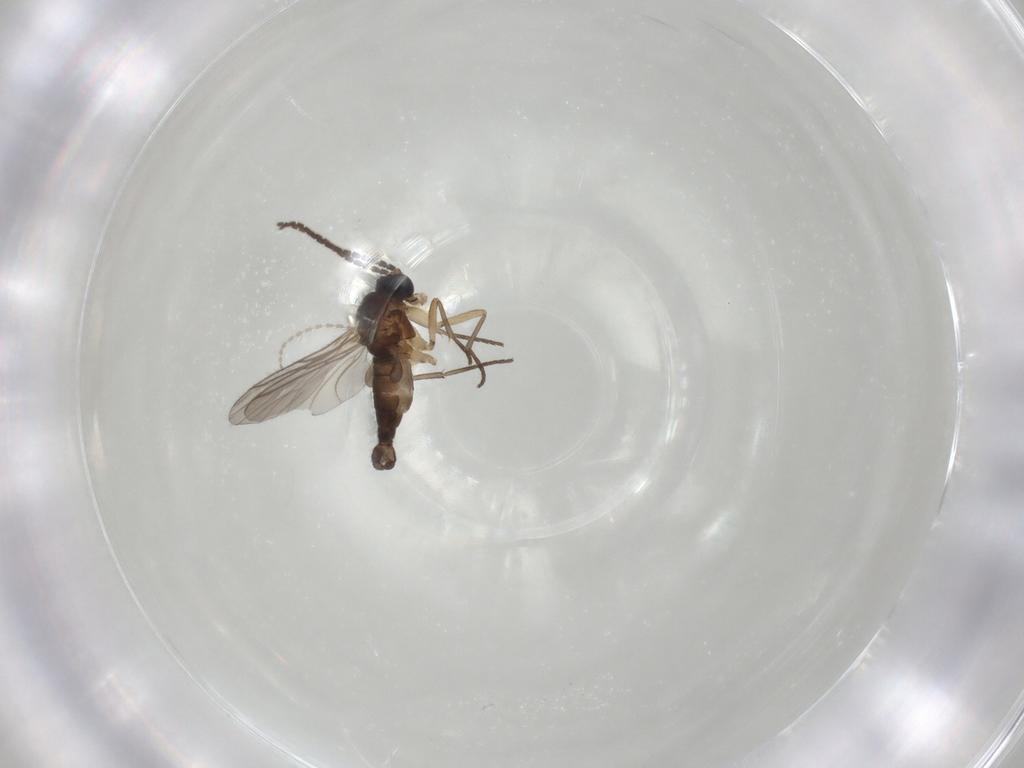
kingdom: Animalia
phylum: Arthropoda
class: Insecta
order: Diptera
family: Sciaridae
